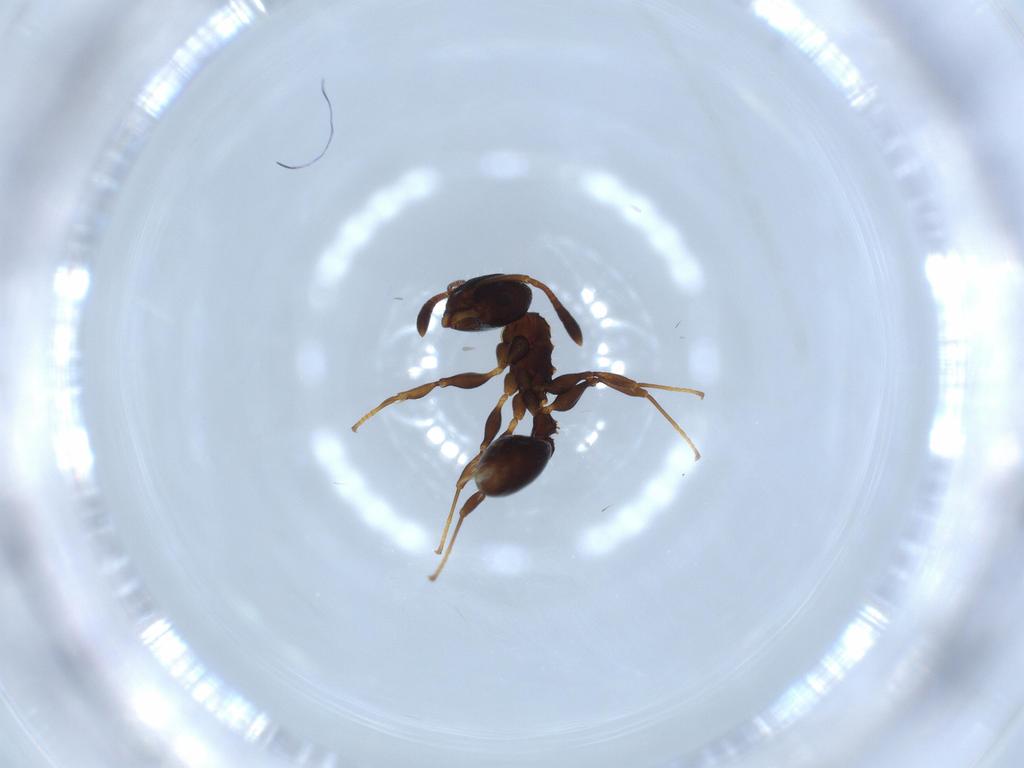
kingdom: Animalia
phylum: Arthropoda
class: Insecta
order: Hymenoptera
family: Formicidae
